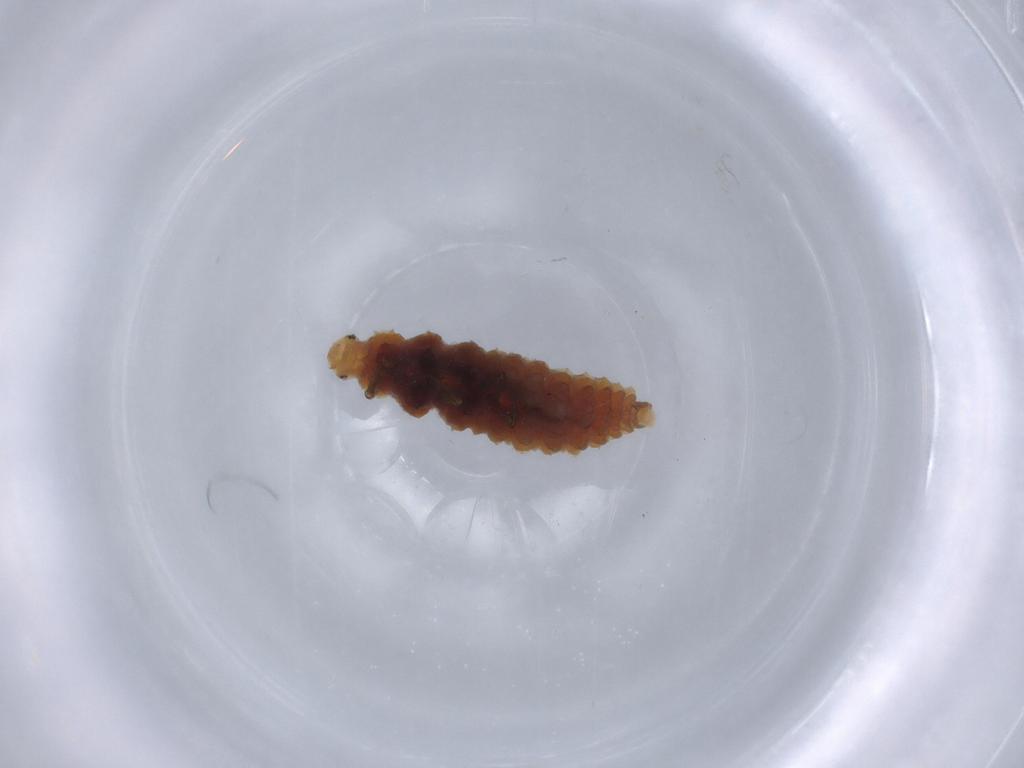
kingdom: Animalia
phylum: Arthropoda
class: Insecta
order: Coleoptera
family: Coccinellidae
